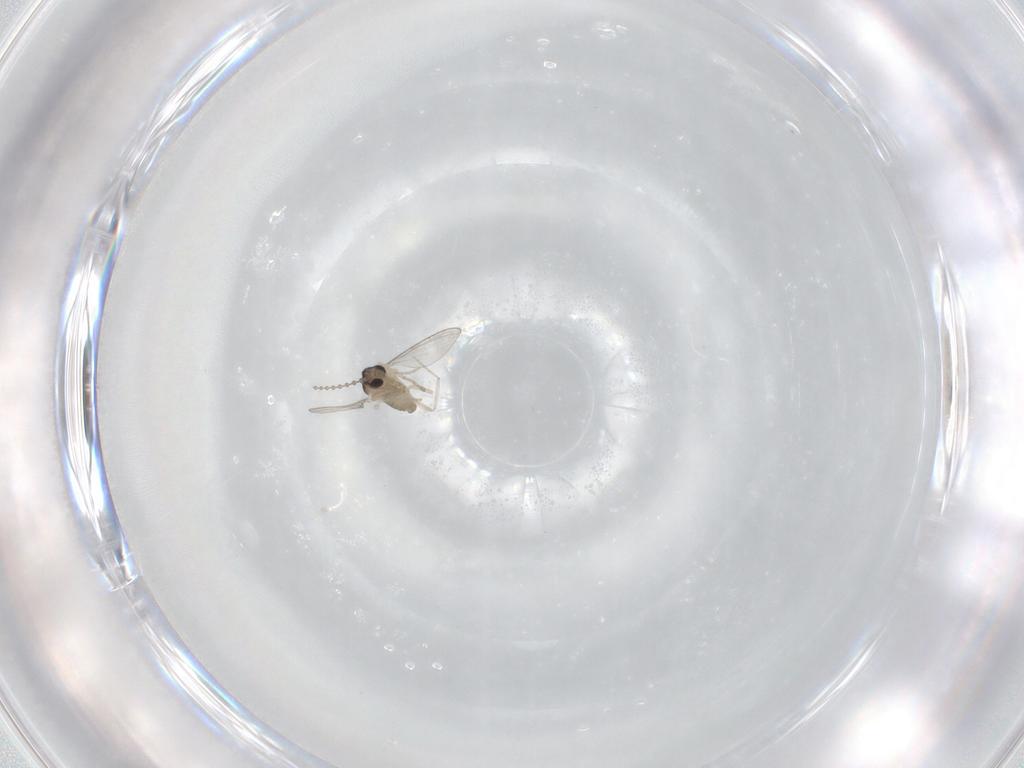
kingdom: Animalia
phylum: Arthropoda
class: Insecta
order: Diptera
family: Cecidomyiidae
